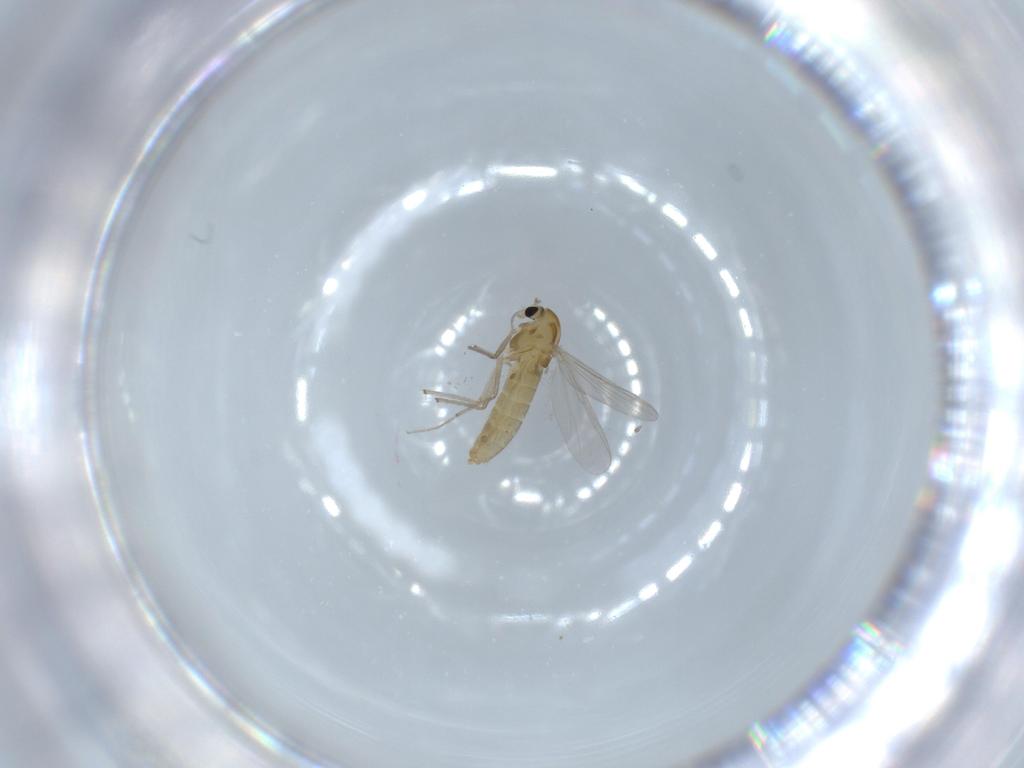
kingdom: Animalia
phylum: Arthropoda
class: Insecta
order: Diptera
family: Chironomidae
